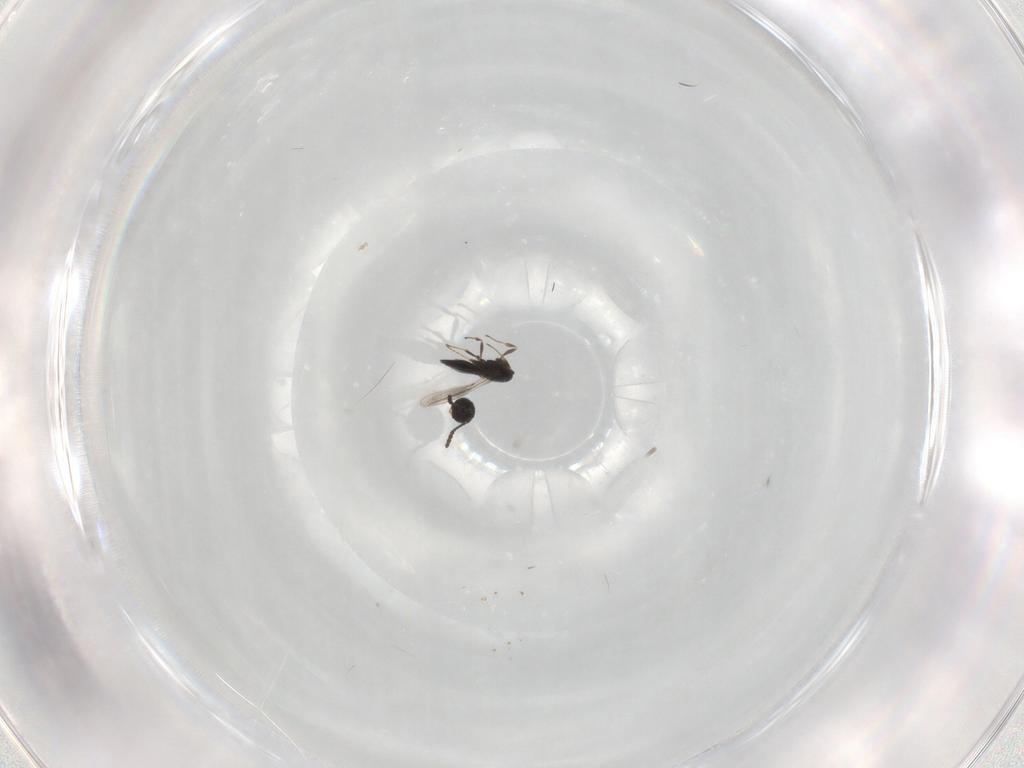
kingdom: Animalia
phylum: Arthropoda
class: Insecta
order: Hymenoptera
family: Scelionidae
